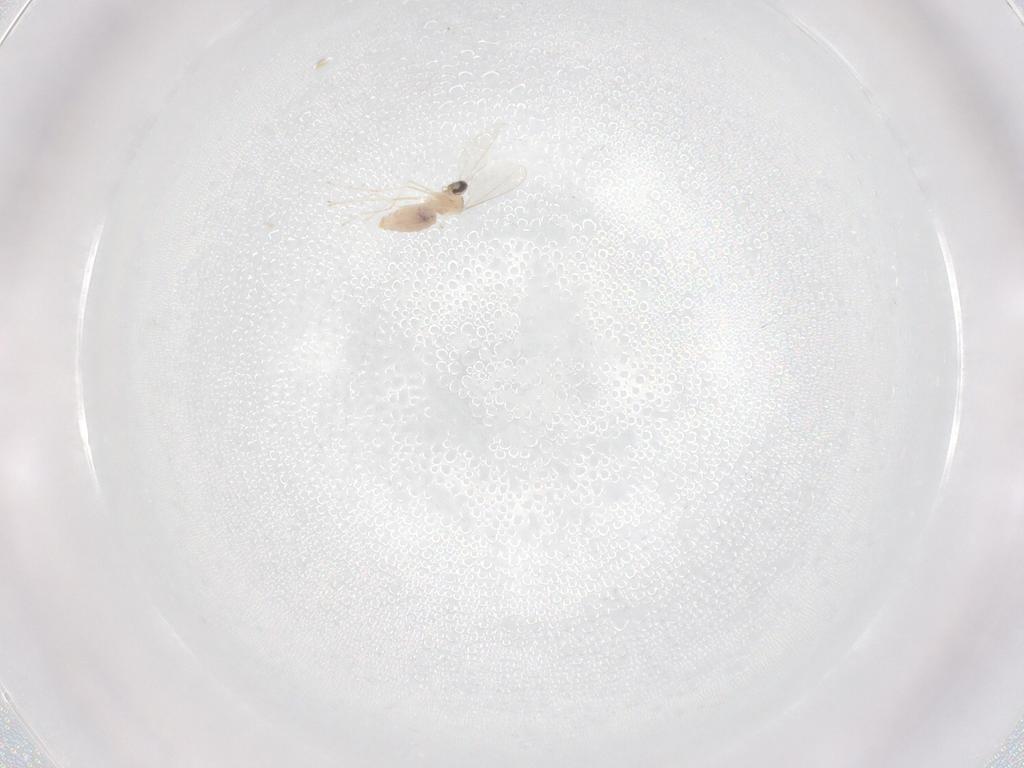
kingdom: Animalia
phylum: Arthropoda
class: Insecta
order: Diptera
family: Cecidomyiidae
